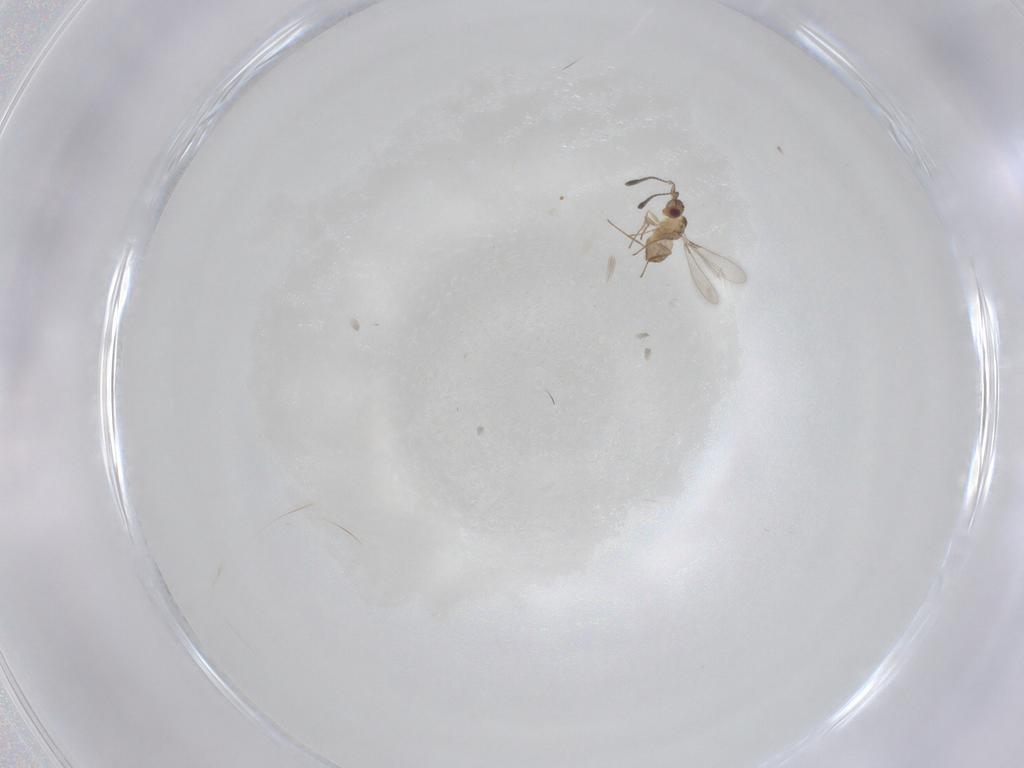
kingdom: Animalia
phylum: Arthropoda
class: Insecta
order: Hymenoptera
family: Mymaridae
